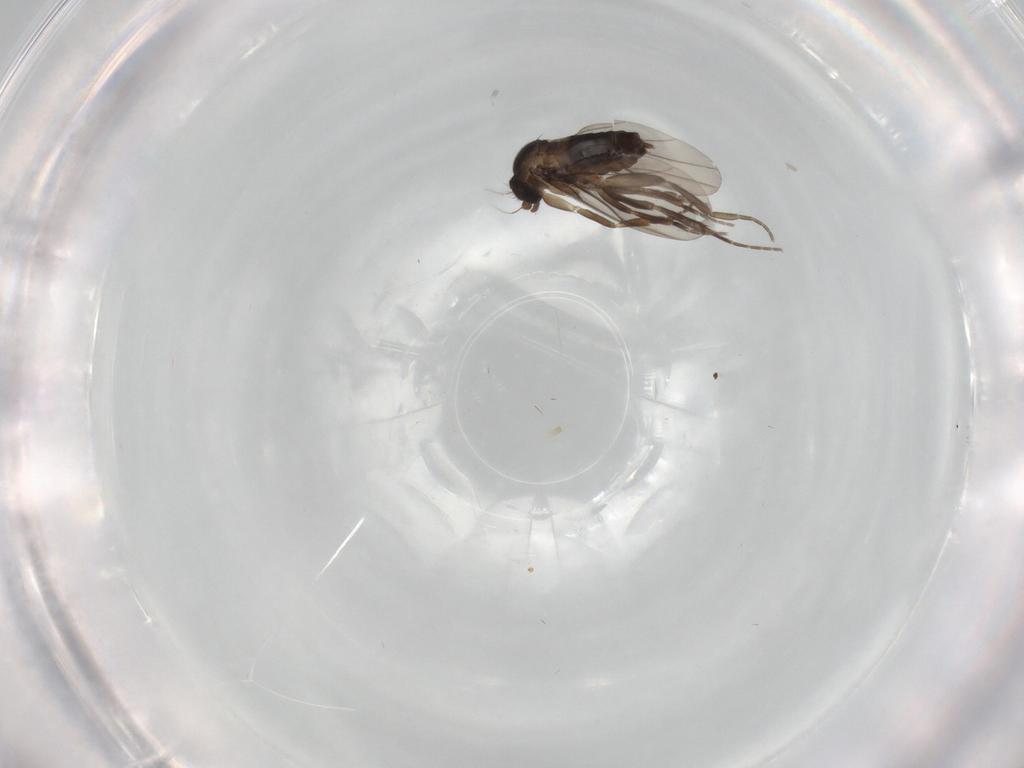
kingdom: Animalia
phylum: Arthropoda
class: Insecta
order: Diptera
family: Phoridae
